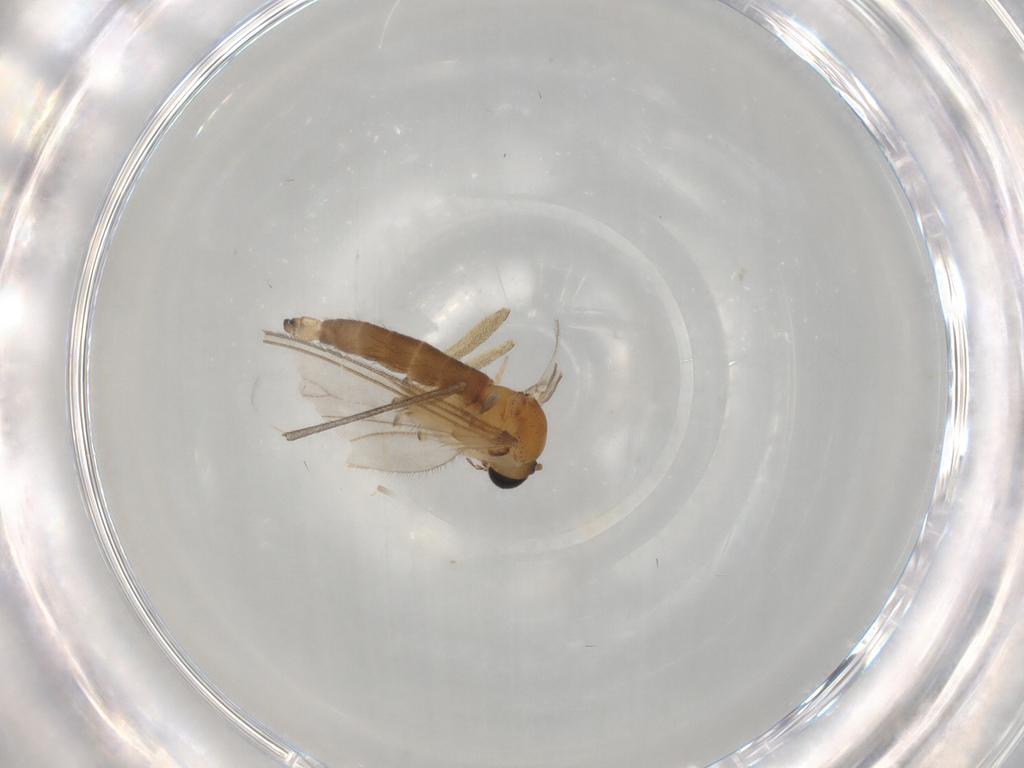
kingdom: Animalia
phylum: Arthropoda
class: Insecta
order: Diptera
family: Sciaridae
